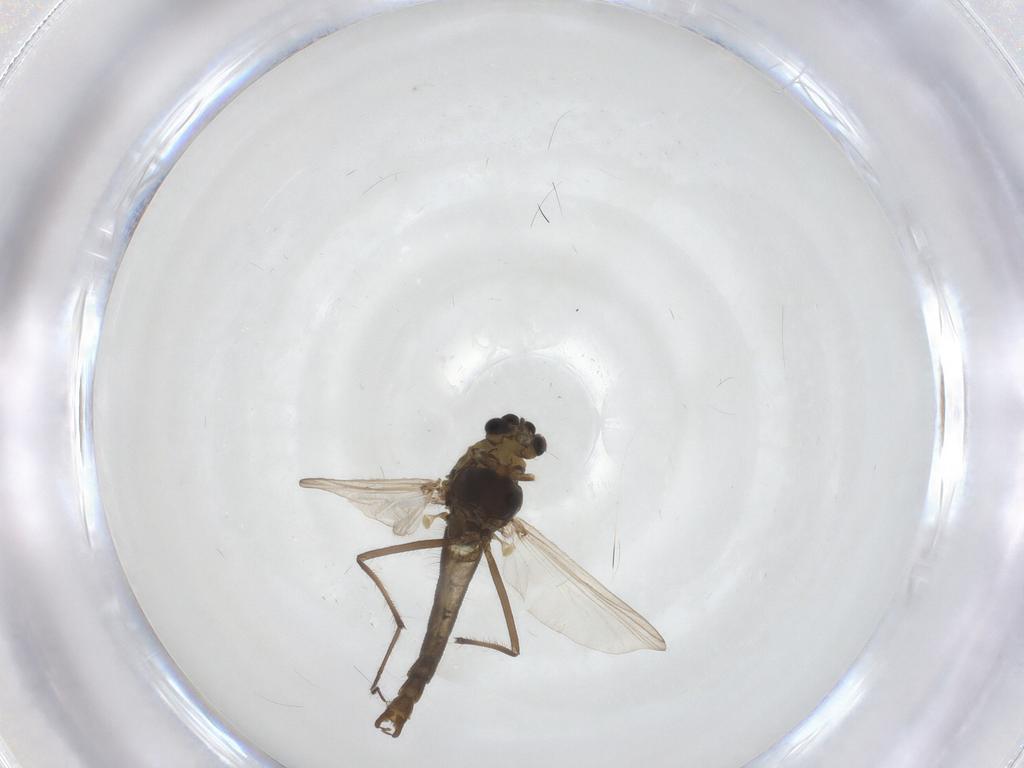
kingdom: Animalia
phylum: Arthropoda
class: Insecta
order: Diptera
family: Chironomidae
